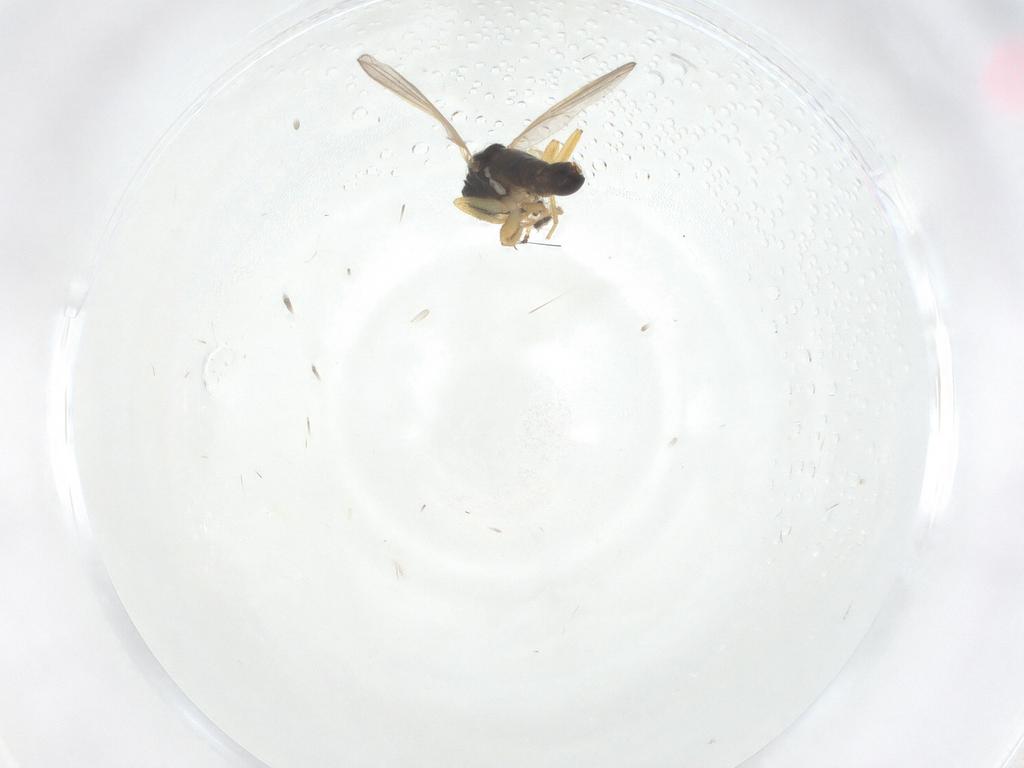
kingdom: Animalia
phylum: Arthropoda
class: Insecta
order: Diptera
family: Hybotidae
